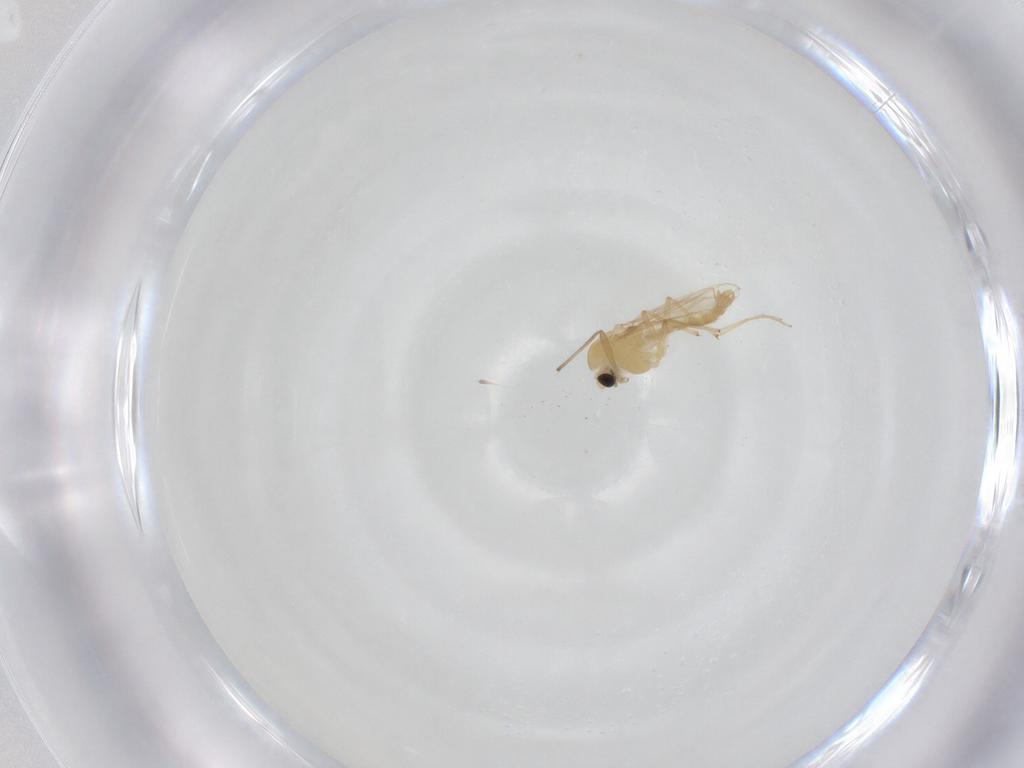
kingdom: Animalia
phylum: Arthropoda
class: Insecta
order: Diptera
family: Chironomidae
